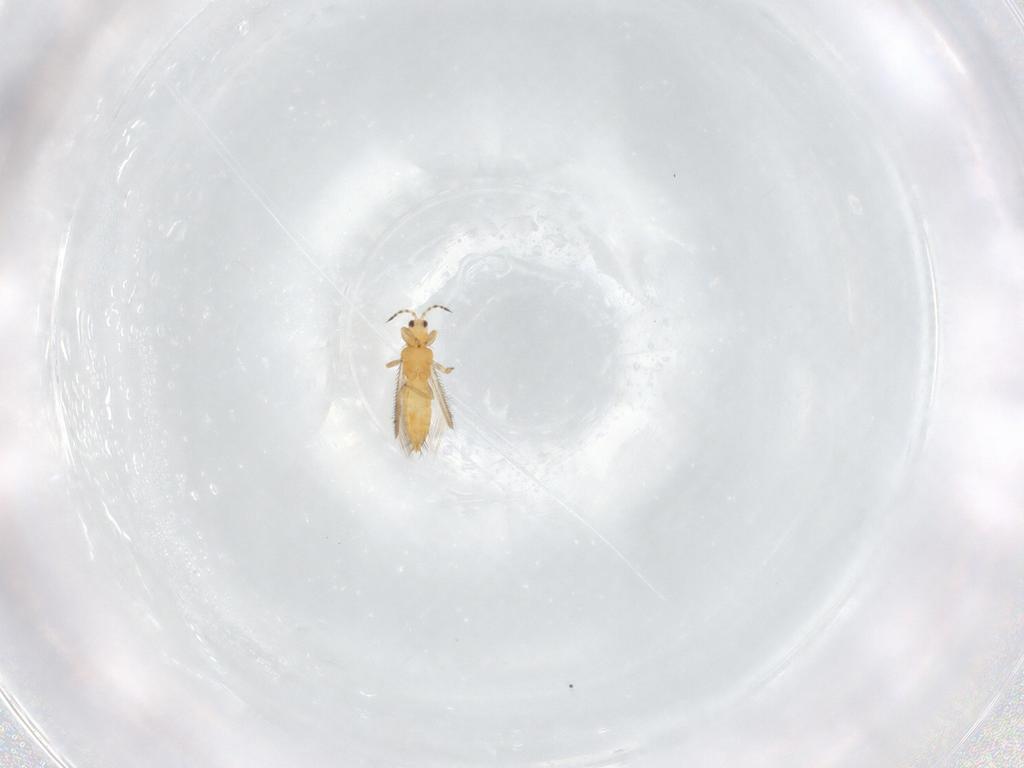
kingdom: Animalia
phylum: Arthropoda
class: Insecta
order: Thysanoptera
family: Thripidae
